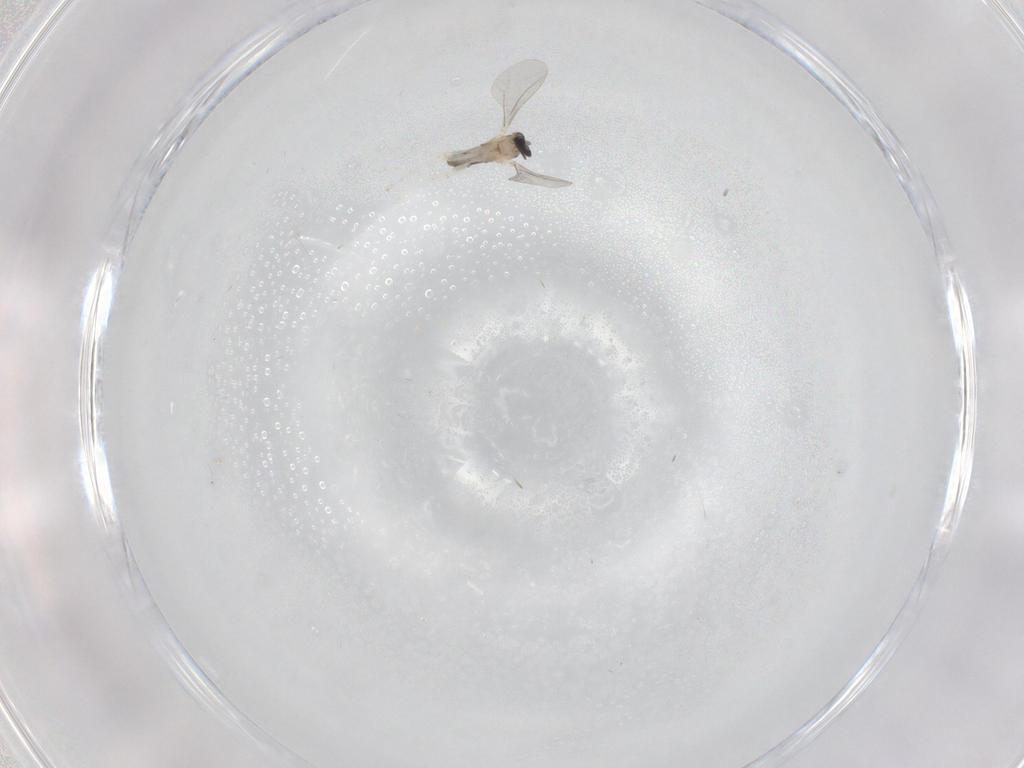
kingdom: Animalia
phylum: Arthropoda
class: Insecta
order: Diptera
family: Cecidomyiidae
